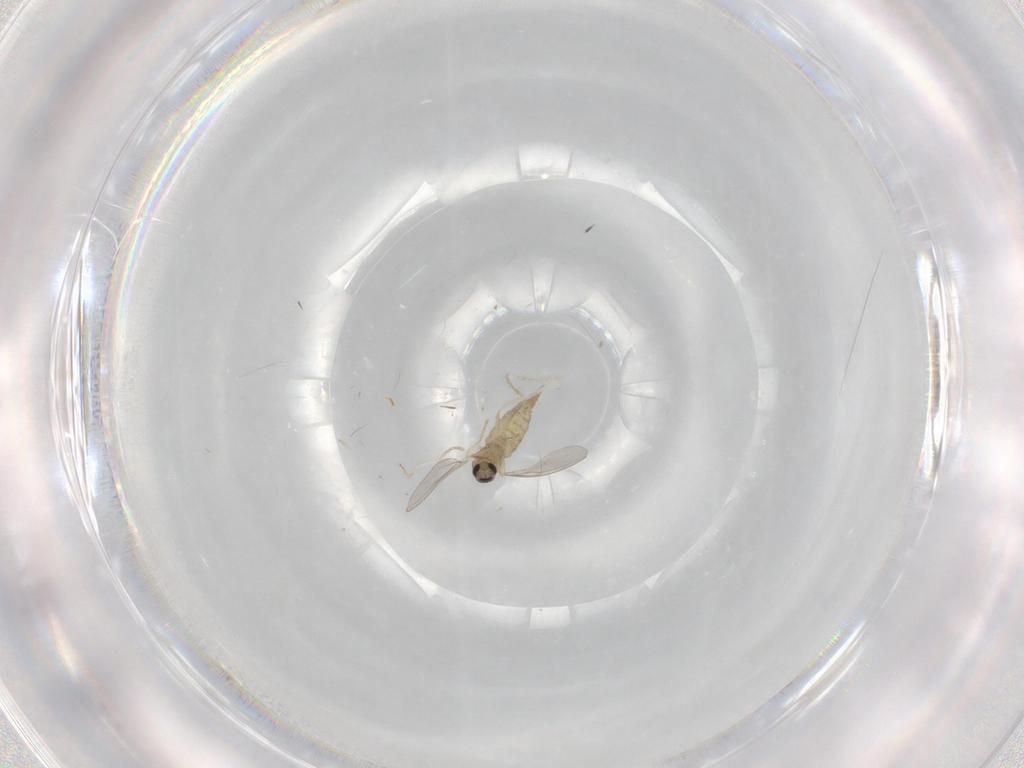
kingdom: Animalia
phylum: Arthropoda
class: Insecta
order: Diptera
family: Cecidomyiidae
